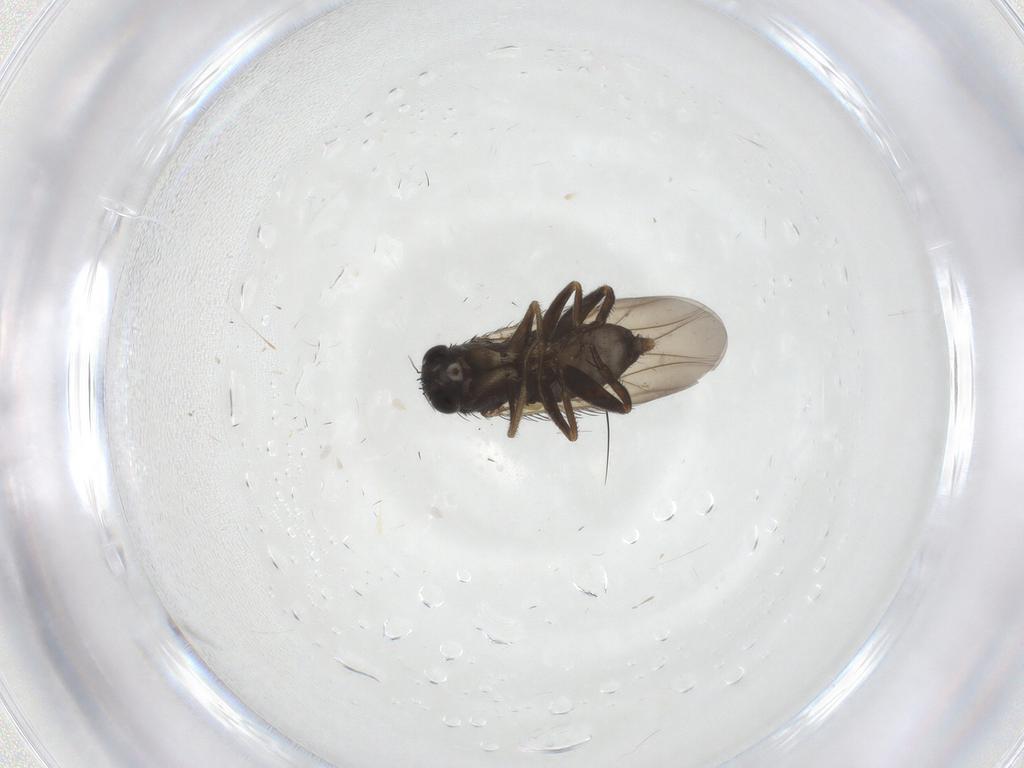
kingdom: Animalia
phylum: Arthropoda
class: Insecta
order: Diptera
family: Phoridae
